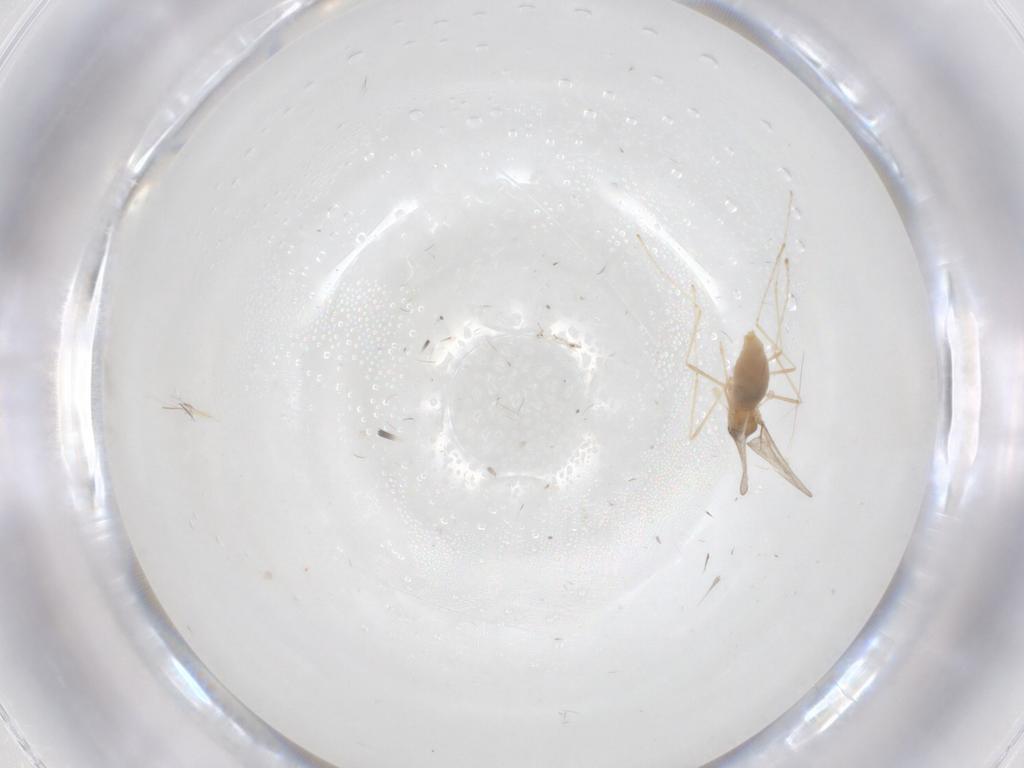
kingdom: Animalia
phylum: Arthropoda
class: Insecta
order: Diptera
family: Cecidomyiidae
